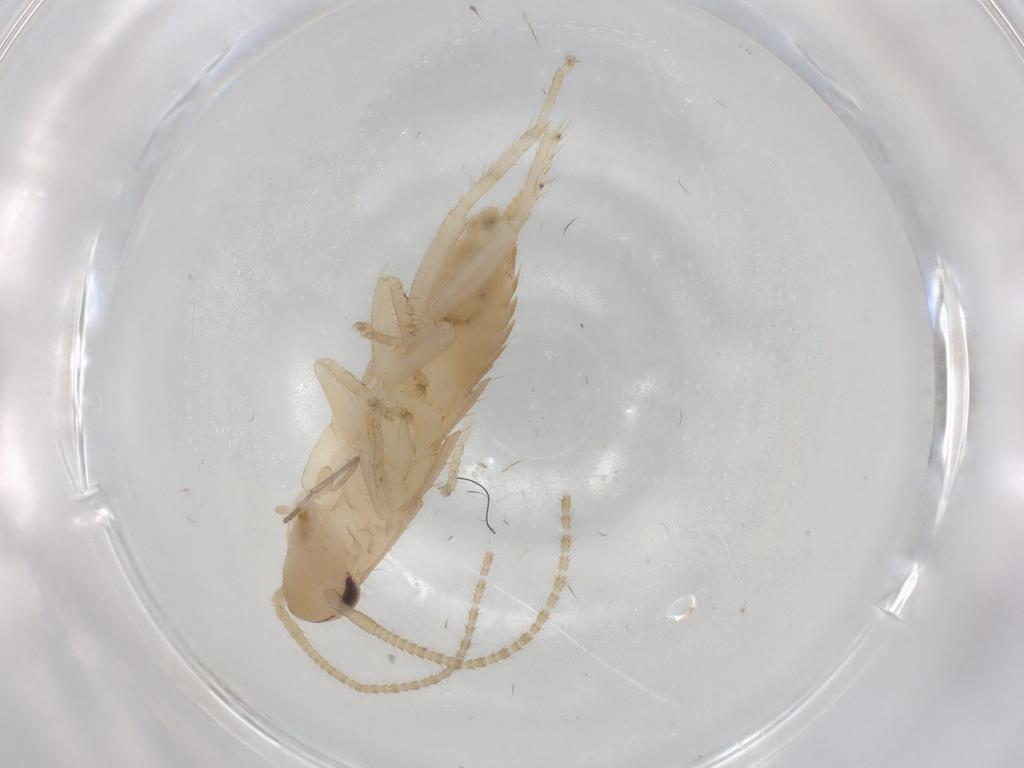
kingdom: Animalia
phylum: Arthropoda
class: Insecta
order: Blattodea
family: Ectobiidae
